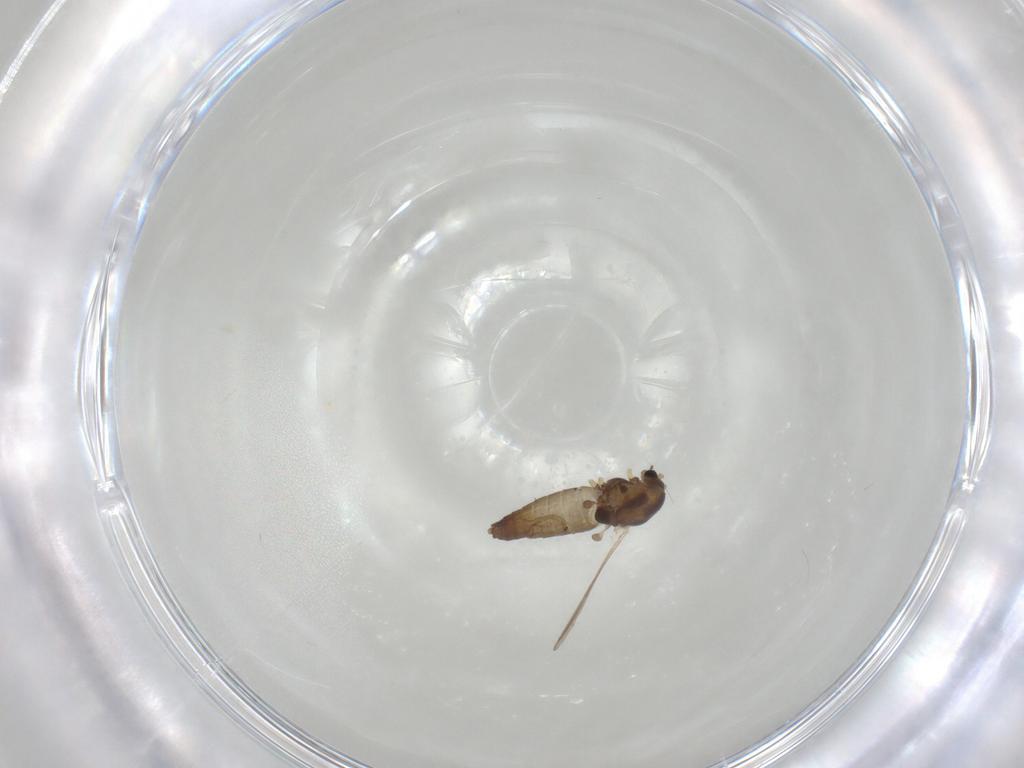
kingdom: Animalia
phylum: Arthropoda
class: Insecta
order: Diptera
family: Chironomidae
